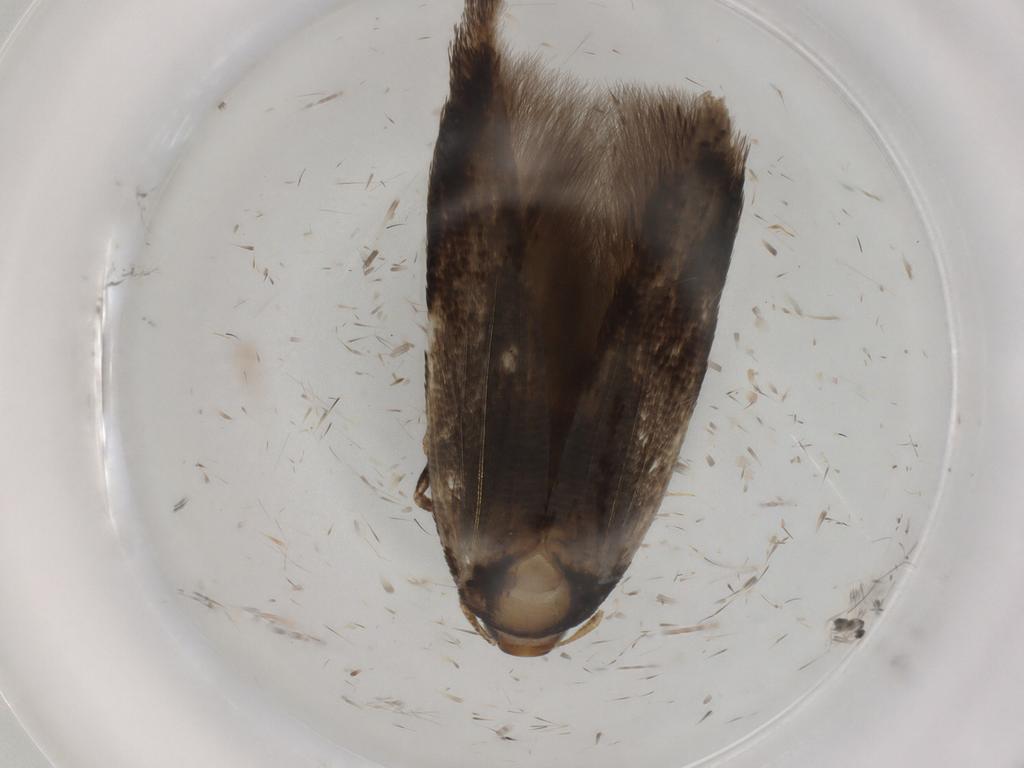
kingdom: Animalia
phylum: Arthropoda
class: Insecta
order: Lepidoptera
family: Cosmopterigidae
